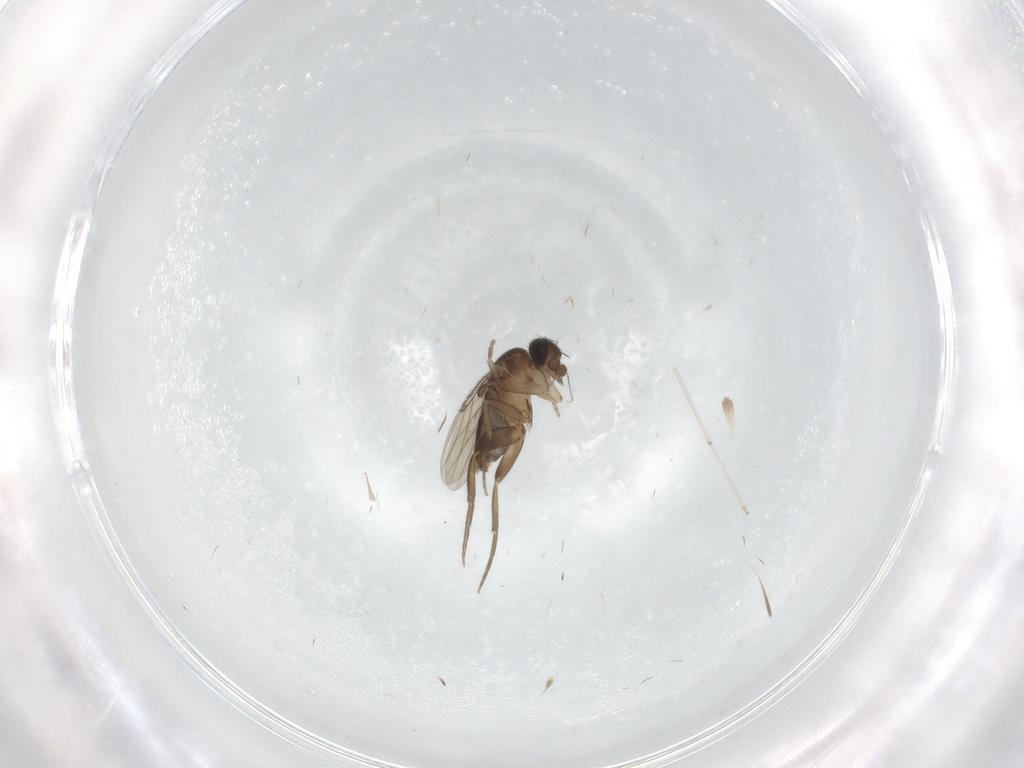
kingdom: Animalia
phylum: Arthropoda
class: Insecta
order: Diptera
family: Phoridae
